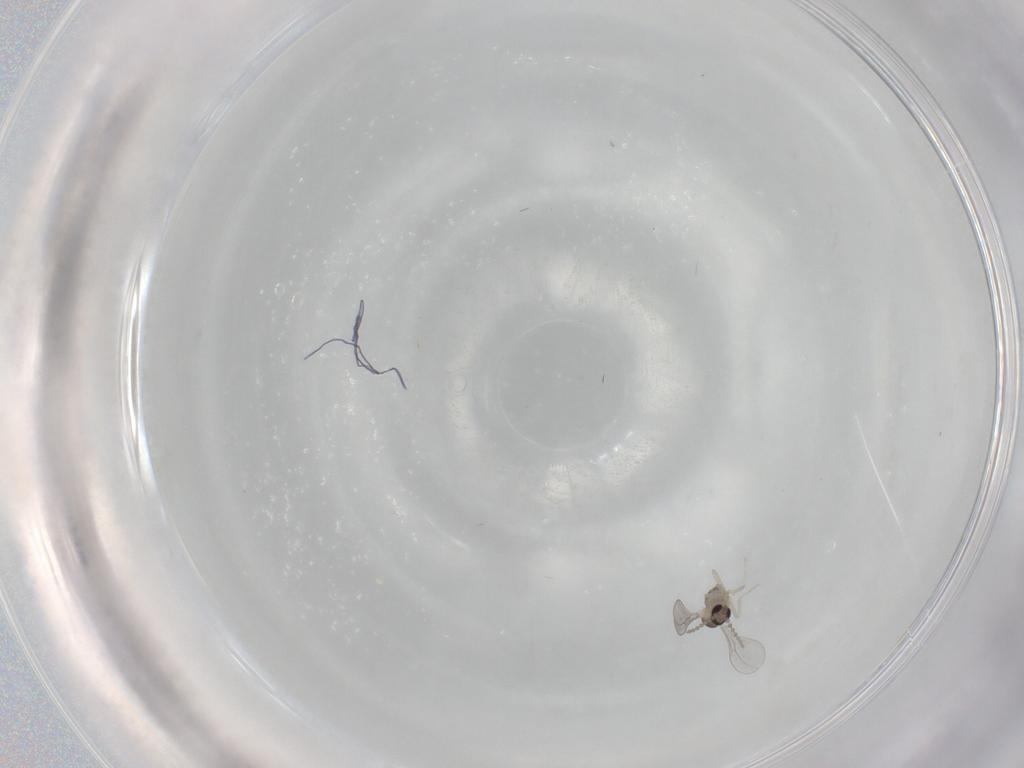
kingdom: Animalia
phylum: Arthropoda
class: Insecta
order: Diptera
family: Cecidomyiidae
